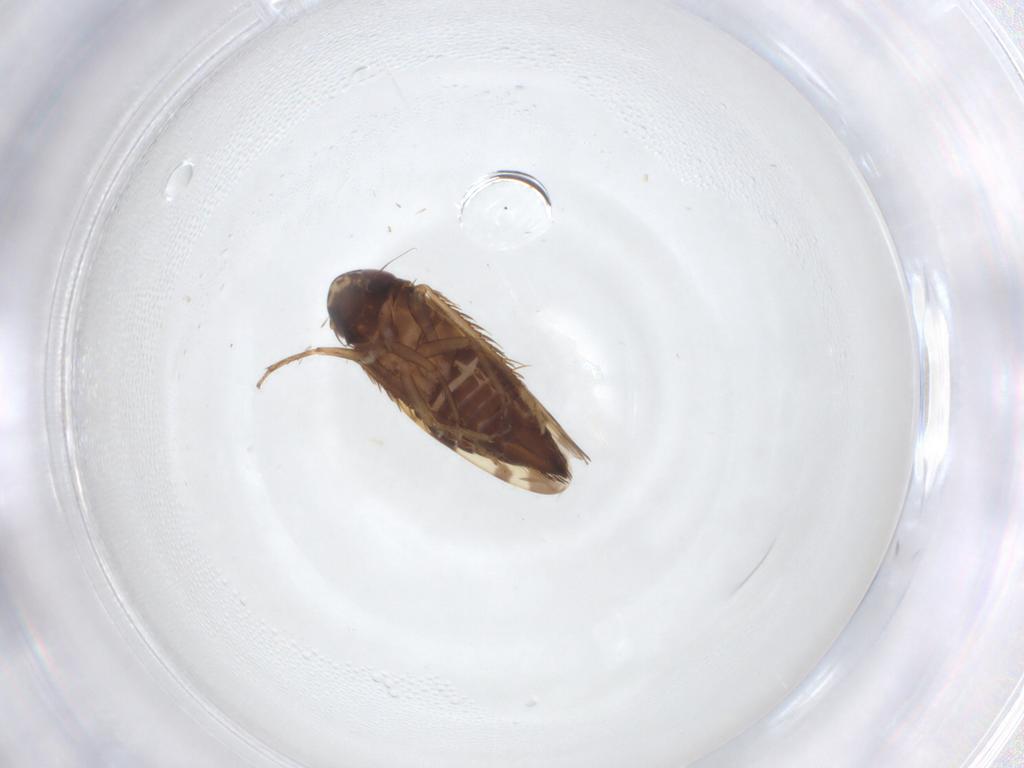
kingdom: Animalia
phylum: Arthropoda
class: Insecta
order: Hemiptera
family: Cicadellidae
